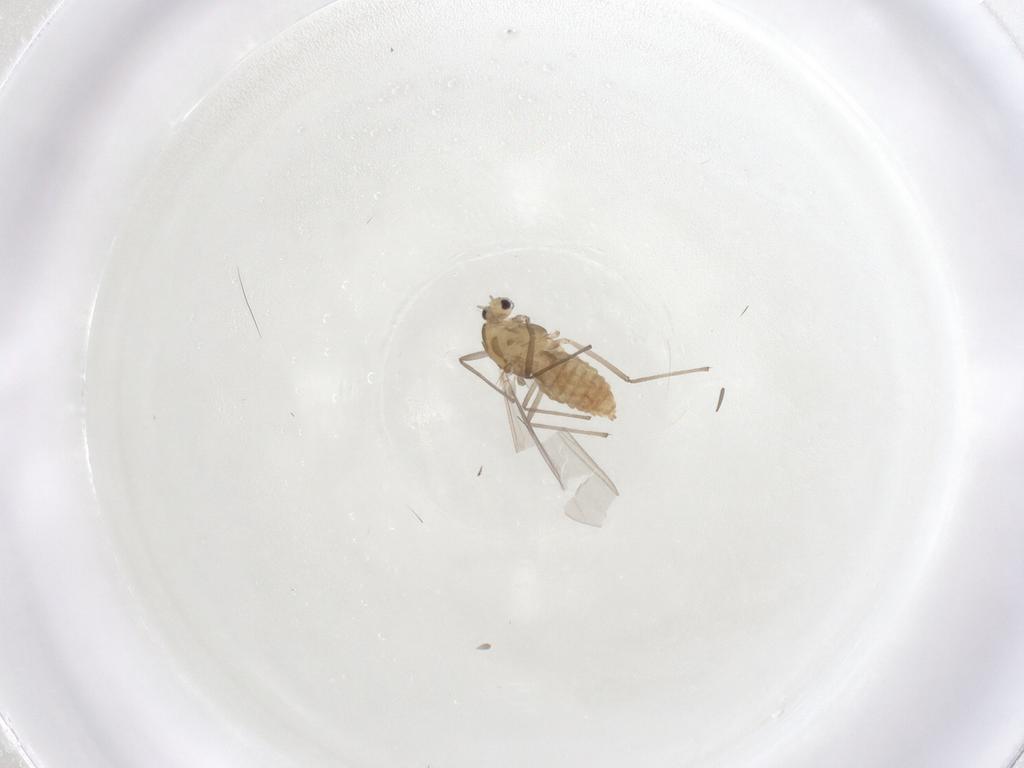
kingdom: Animalia
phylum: Arthropoda
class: Insecta
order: Diptera
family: Chironomidae
